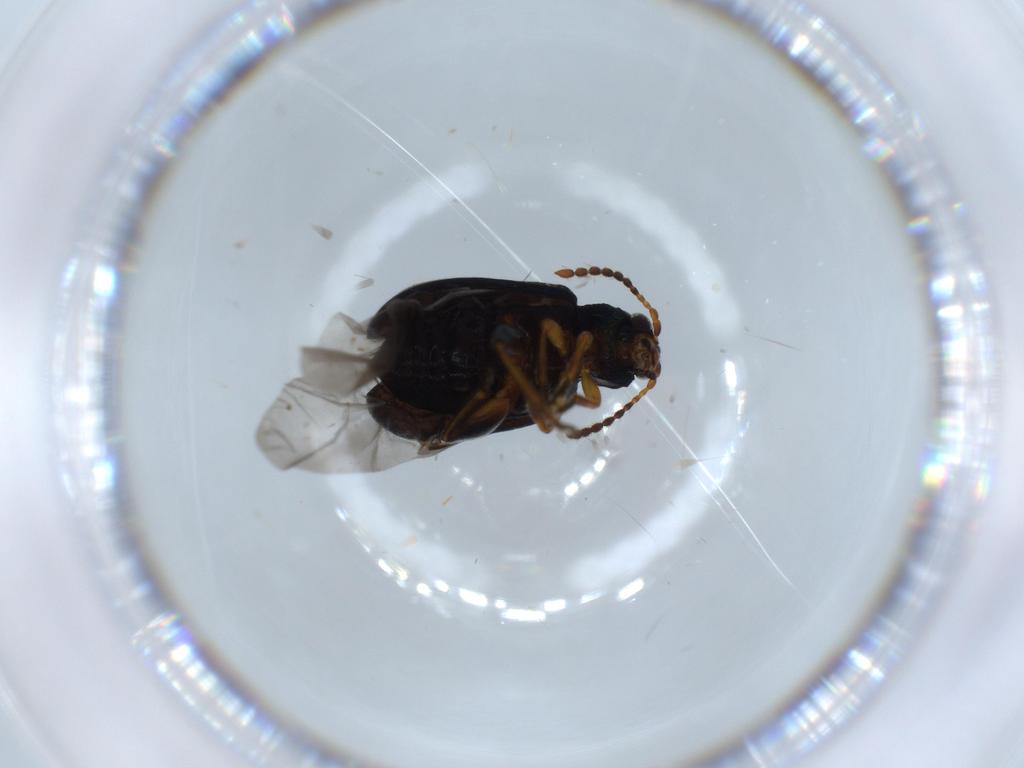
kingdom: Animalia
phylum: Arthropoda
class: Insecta
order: Coleoptera
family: Chrysomelidae
